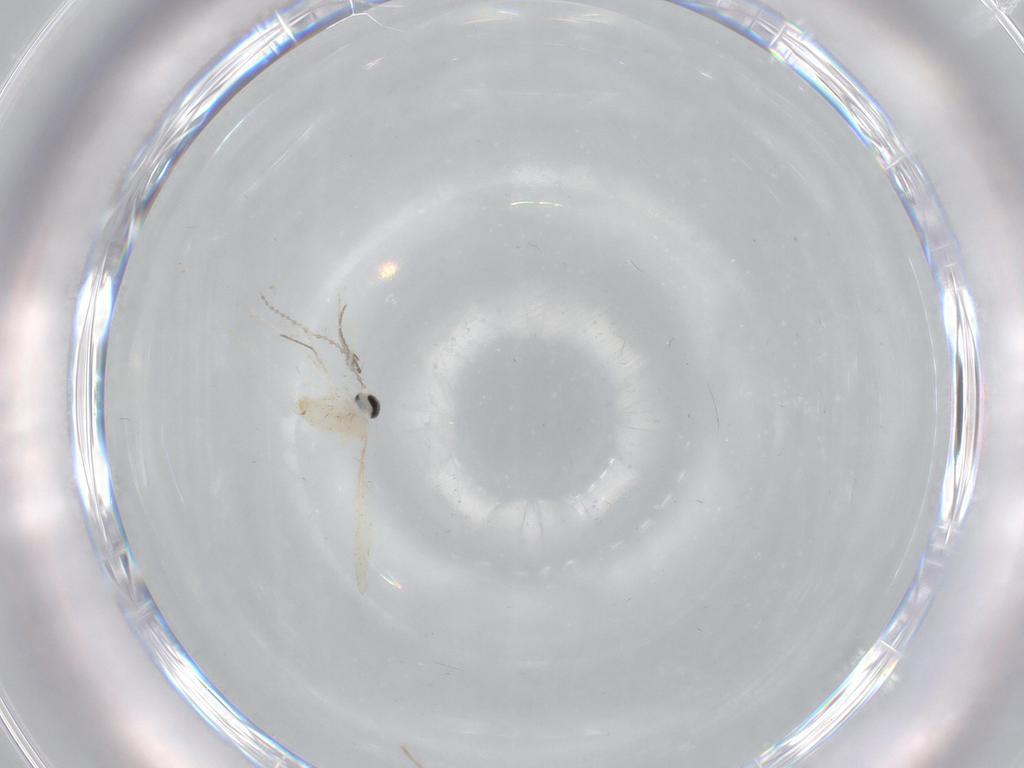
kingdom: Animalia
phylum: Arthropoda
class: Insecta
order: Diptera
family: Cecidomyiidae
